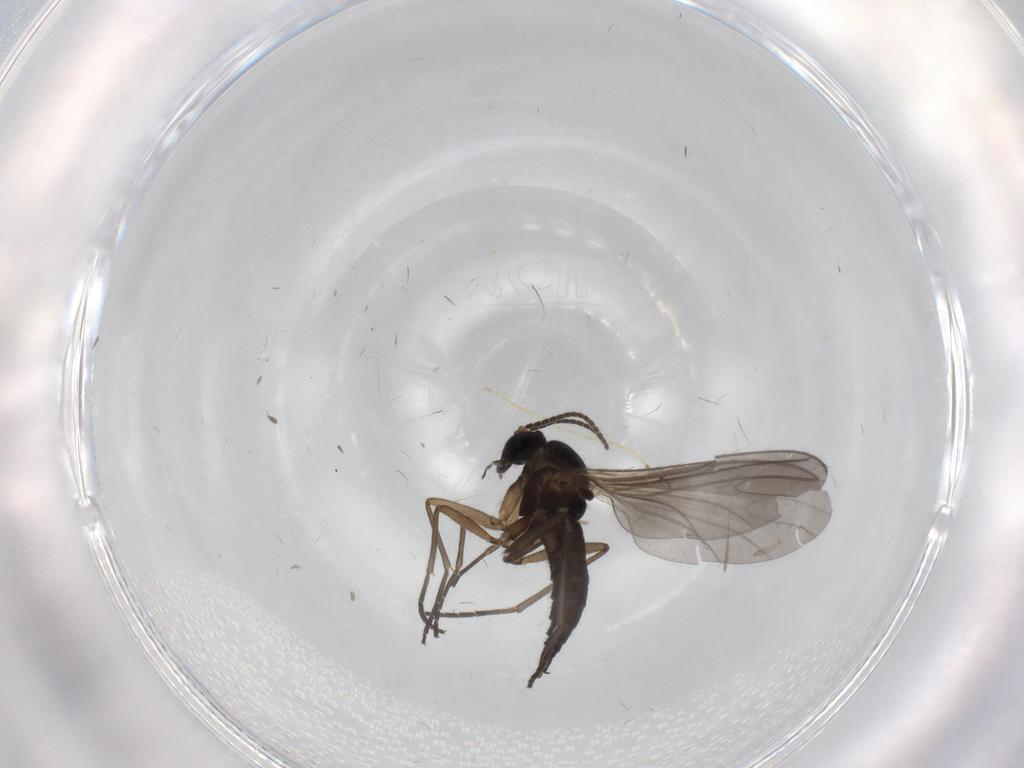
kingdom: Animalia
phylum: Arthropoda
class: Insecta
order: Diptera
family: Sciaridae
